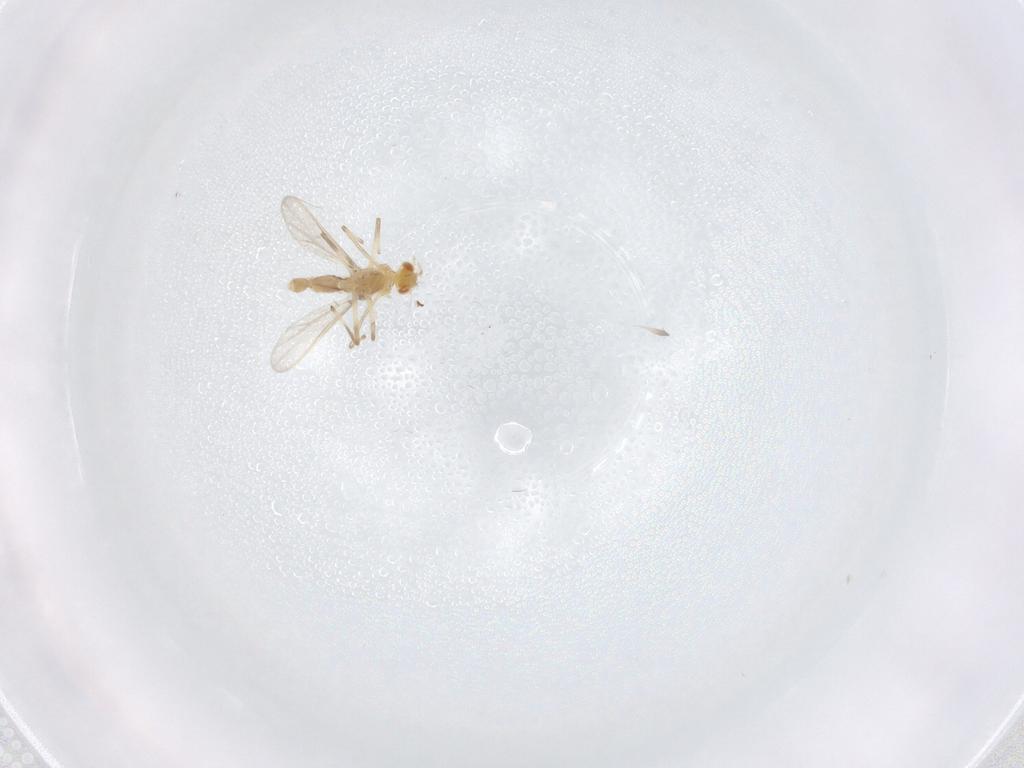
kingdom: Animalia
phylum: Arthropoda
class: Insecta
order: Diptera
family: Chironomidae
